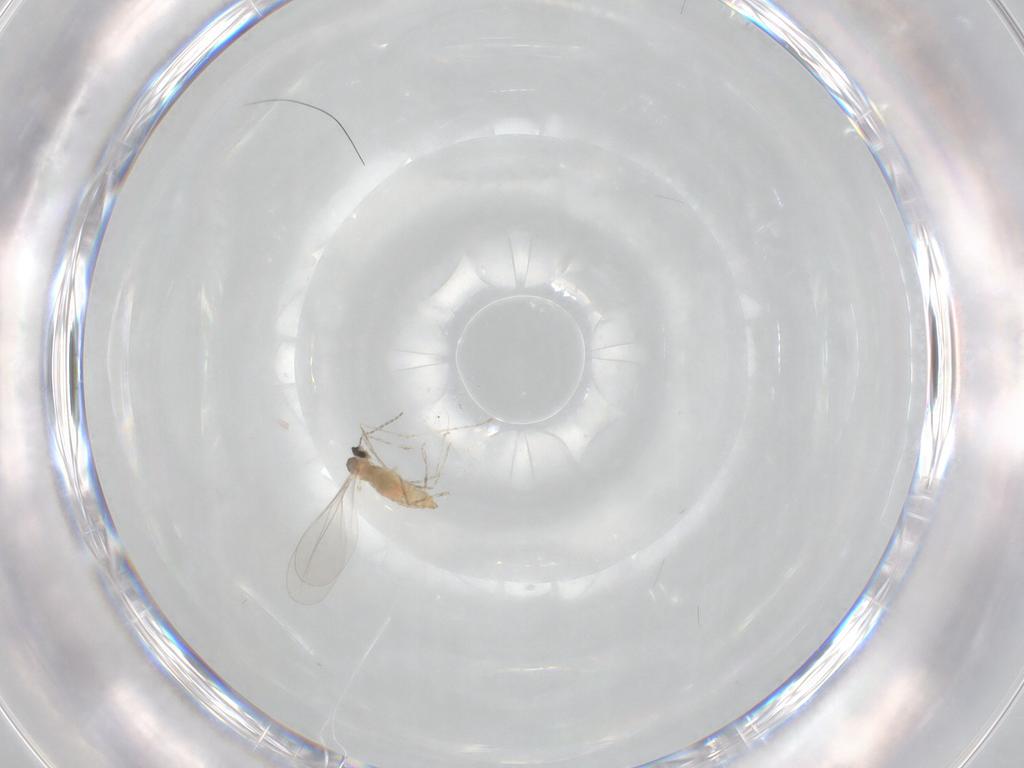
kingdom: Animalia
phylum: Arthropoda
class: Insecta
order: Diptera
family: Cecidomyiidae
